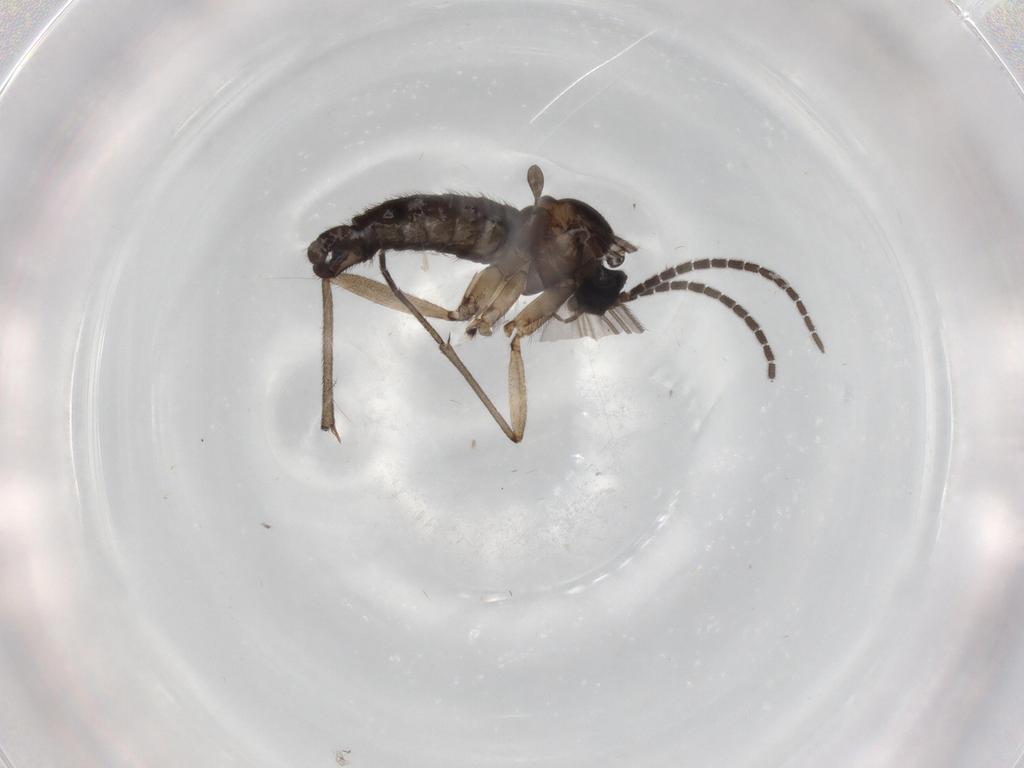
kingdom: Animalia
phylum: Arthropoda
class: Insecta
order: Diptera
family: Sciaridae
